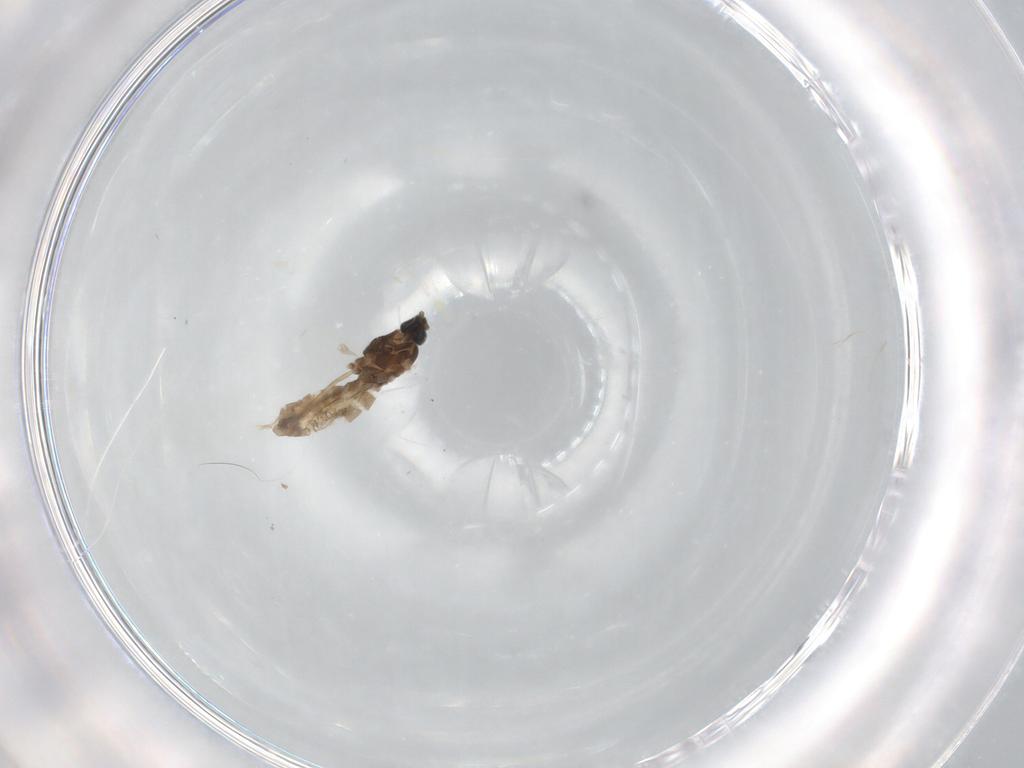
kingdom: Animalia
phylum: Arthropoda
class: Insecta
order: Diptera
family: Cecidomyiidae
